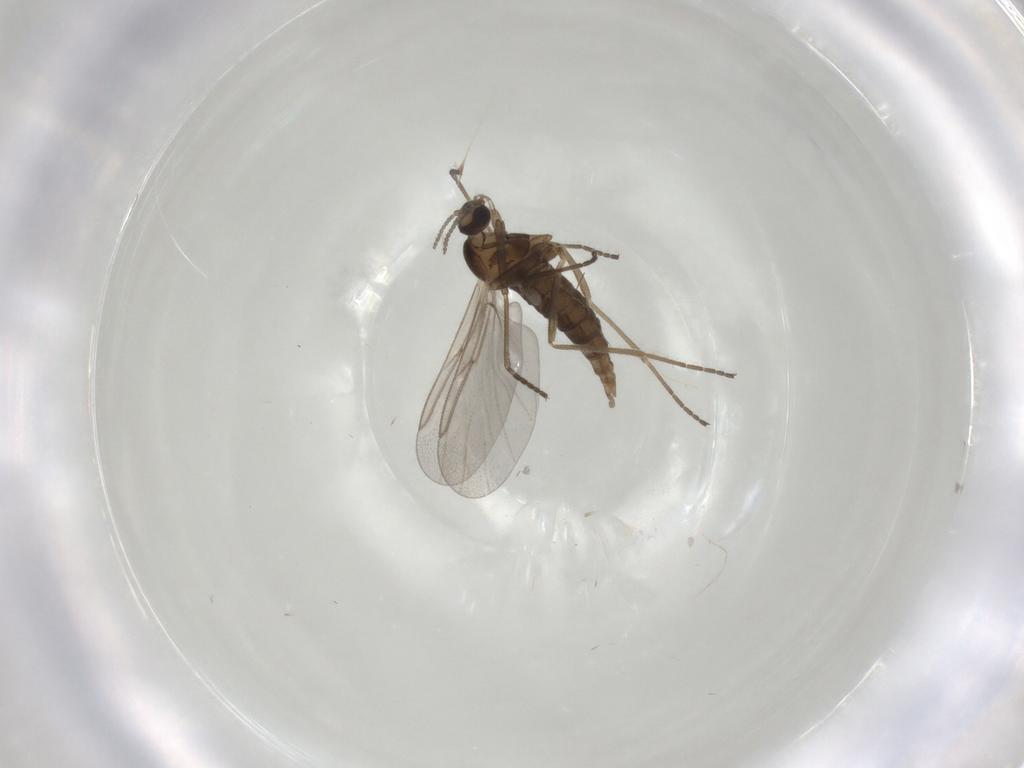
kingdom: Animalia
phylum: Arthropoda
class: Insecta
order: Diptera
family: Cecidomyiidae
